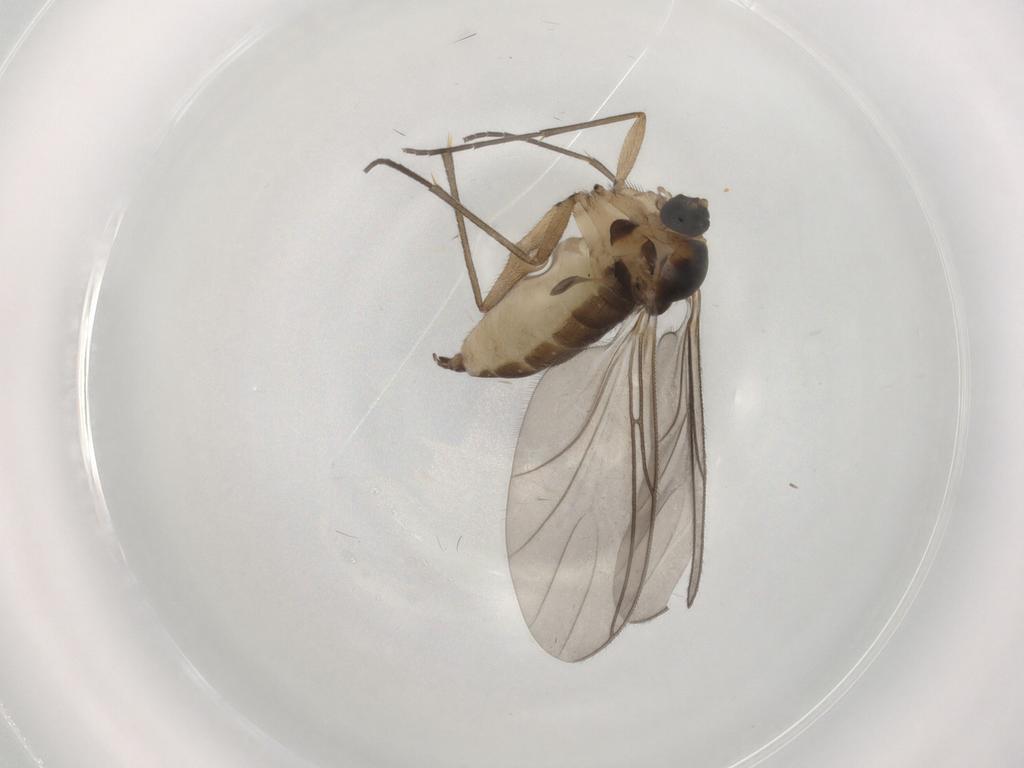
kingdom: Animalia
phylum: Arthropoda
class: Insecta
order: Diptera
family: Sciaridae
